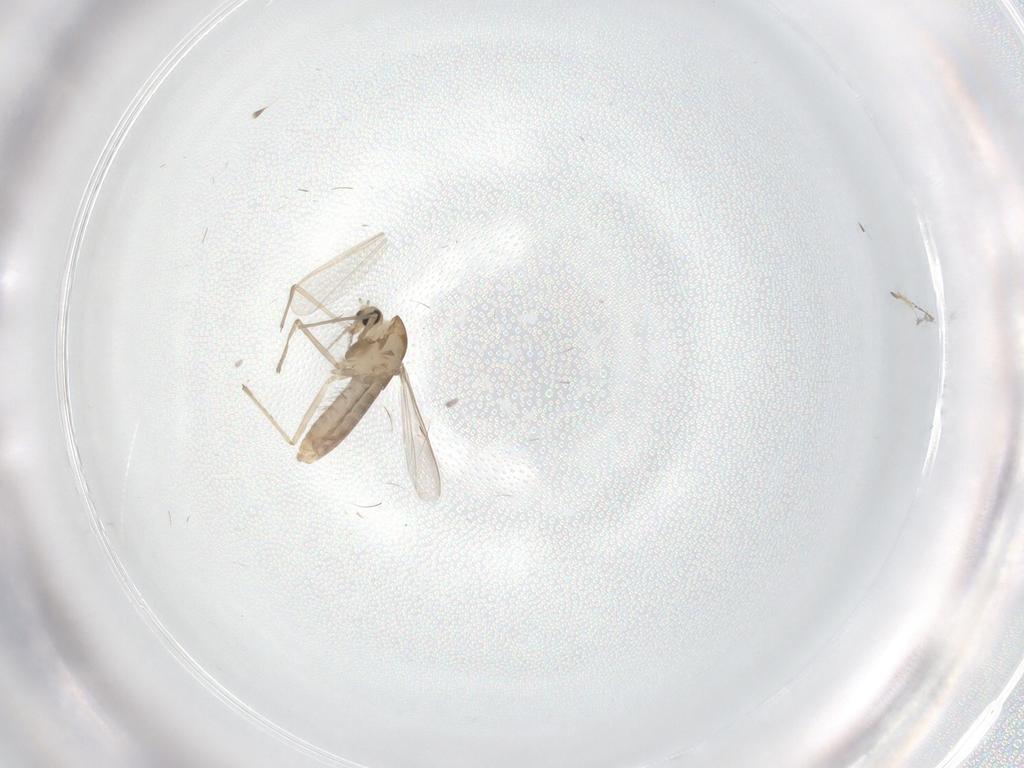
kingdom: Animalia
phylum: Arthropoda
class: Insecta
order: Diptera
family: Chironomidae
